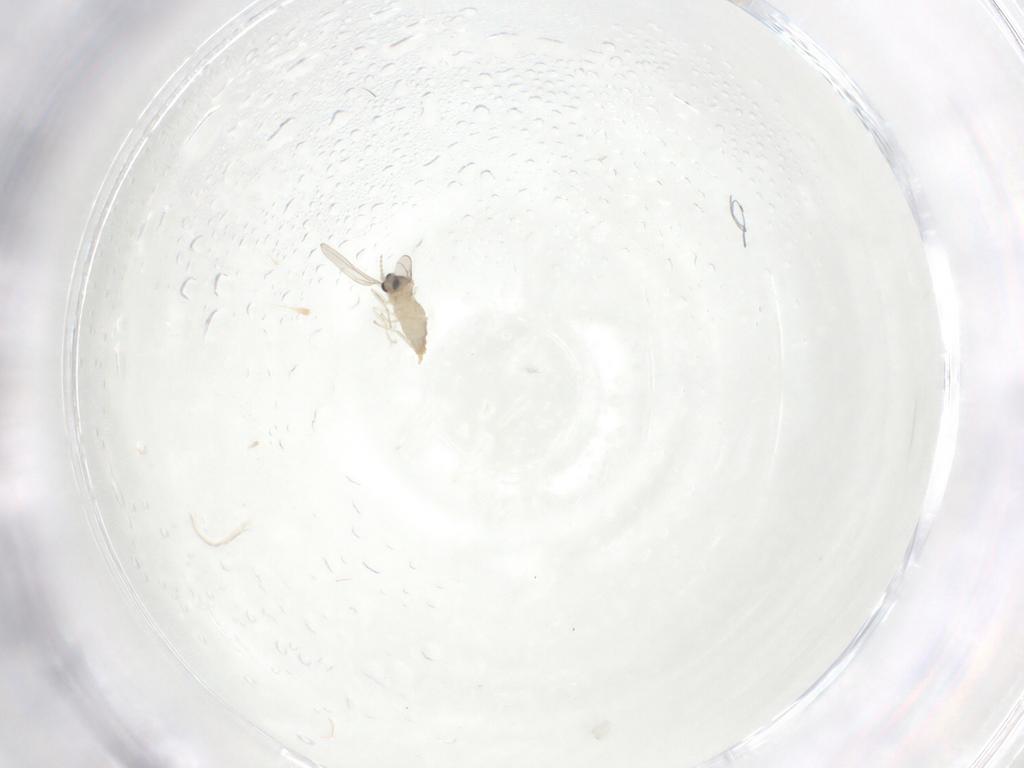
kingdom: Animalia
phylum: Arthropoda
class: Insecta
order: Diptera
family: Cecidomyiidae
